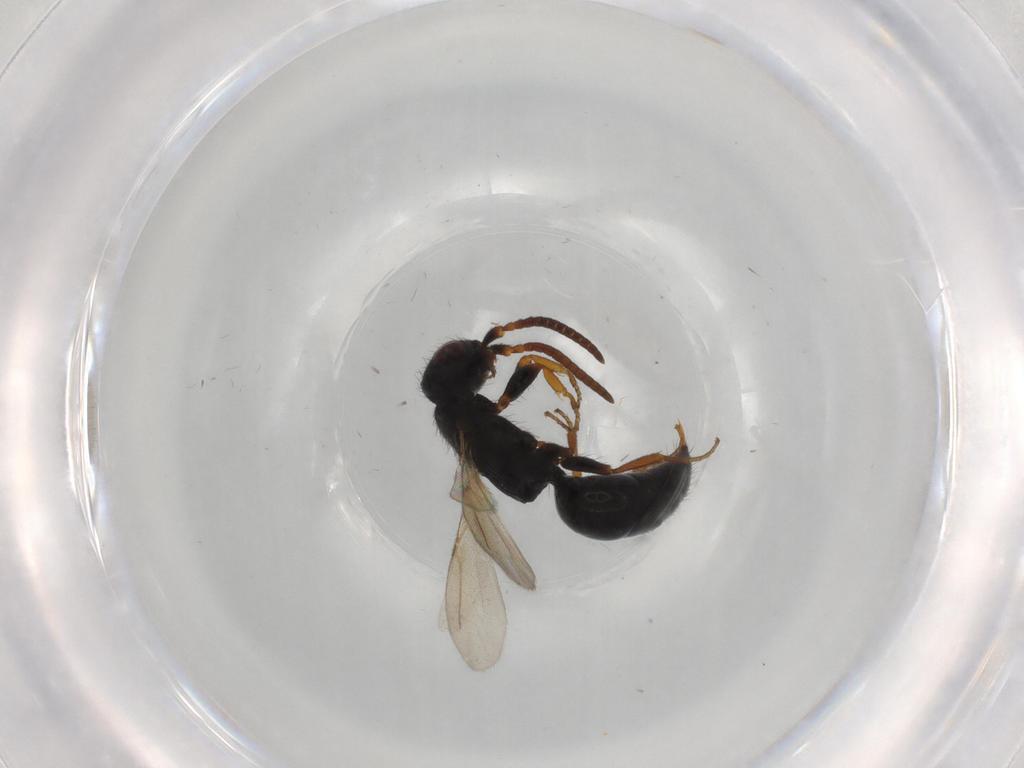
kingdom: Animalia
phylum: Arthropoda
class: Insecta
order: Hymenoptera
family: Bethylidae
